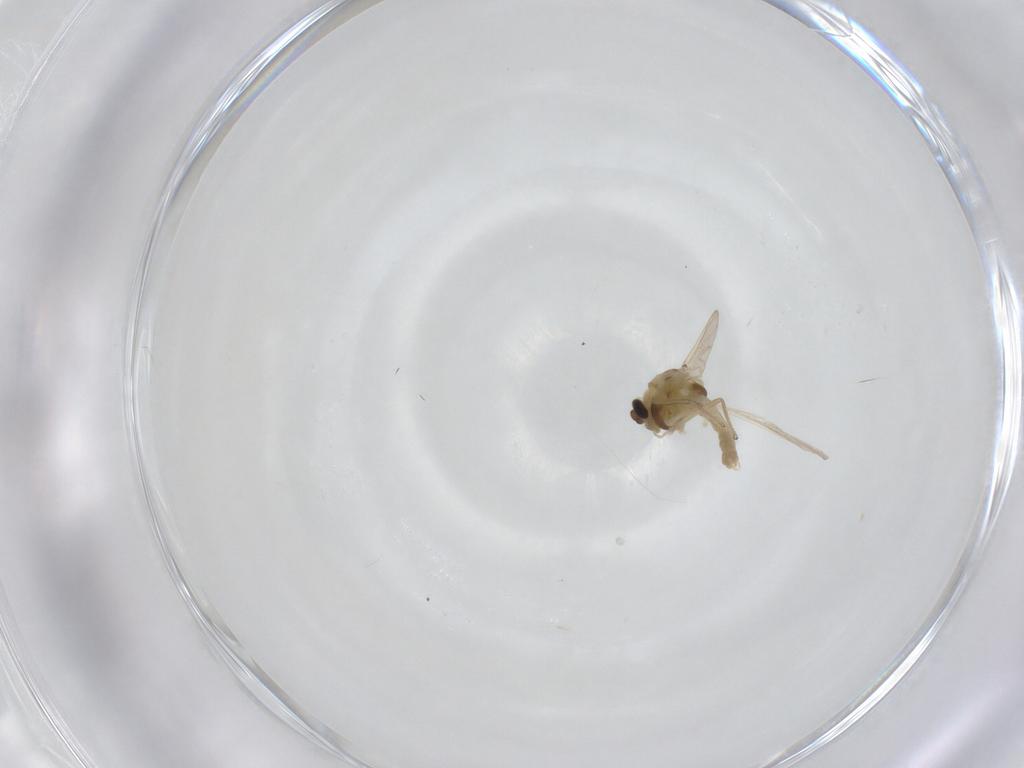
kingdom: Animalia
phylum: Arthropoda
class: Insecta
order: Diptera
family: Chironomidae
